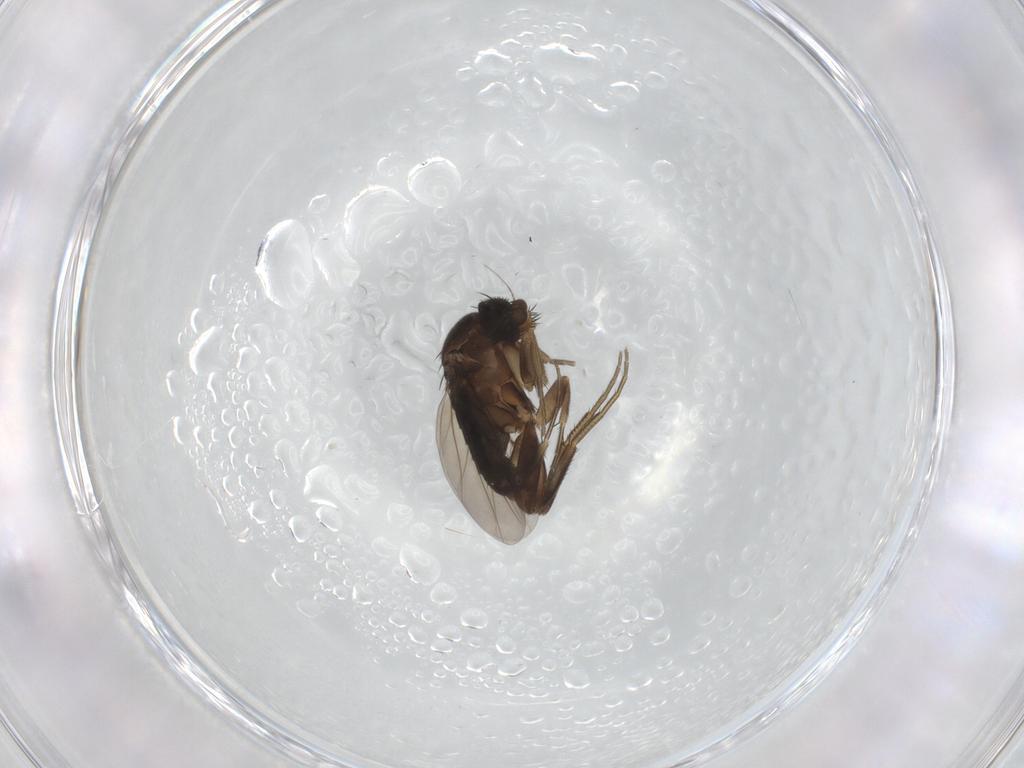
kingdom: Animalia
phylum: Arthropoda
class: Insecta
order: Diptera
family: Phoridae
